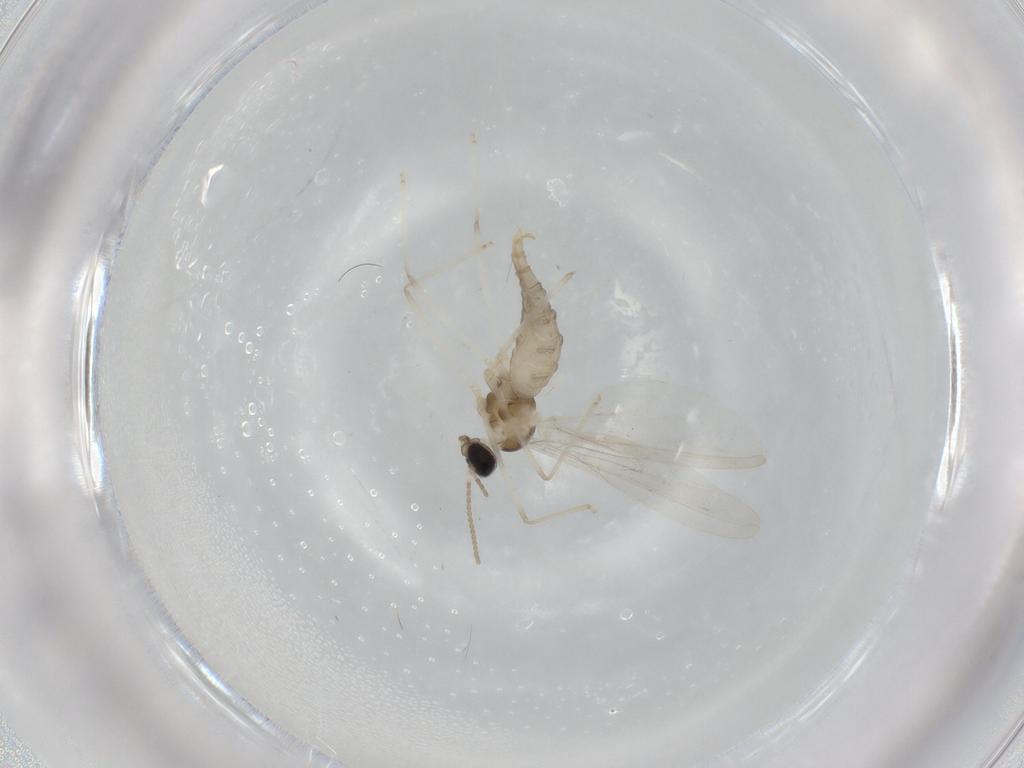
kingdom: Animalia
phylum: Arthropoda
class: Insecta
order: Diptera
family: Cecidomyiidae
